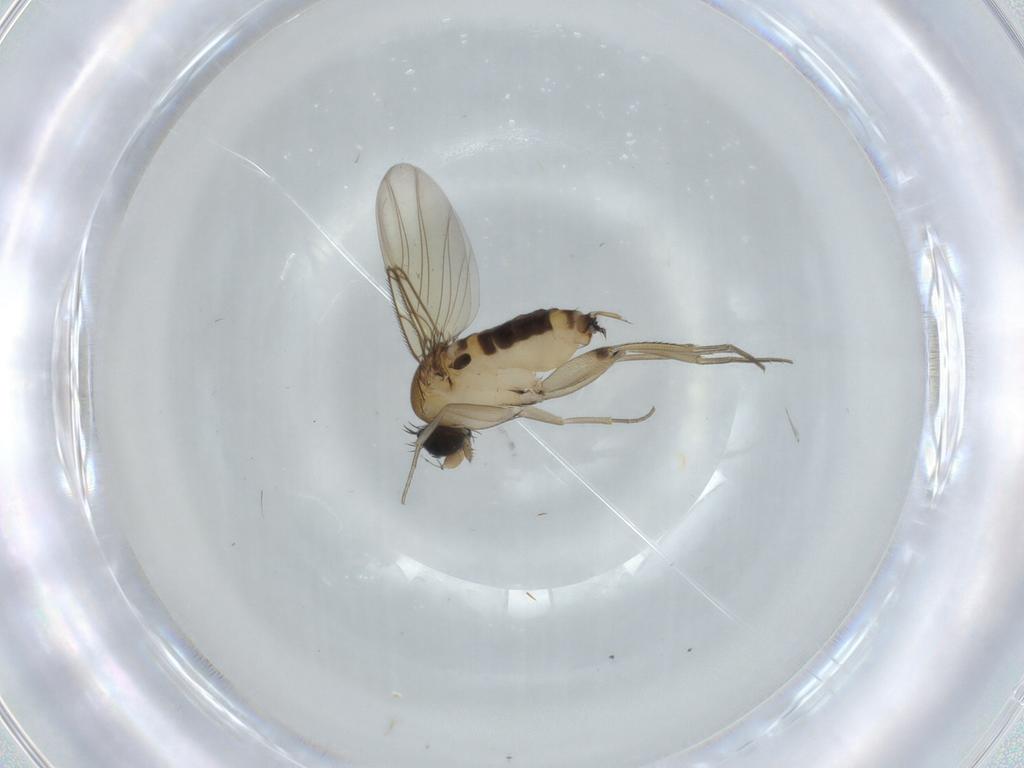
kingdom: Animalia
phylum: Arthropoda
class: Insecta
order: Diptera
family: Phoridae
